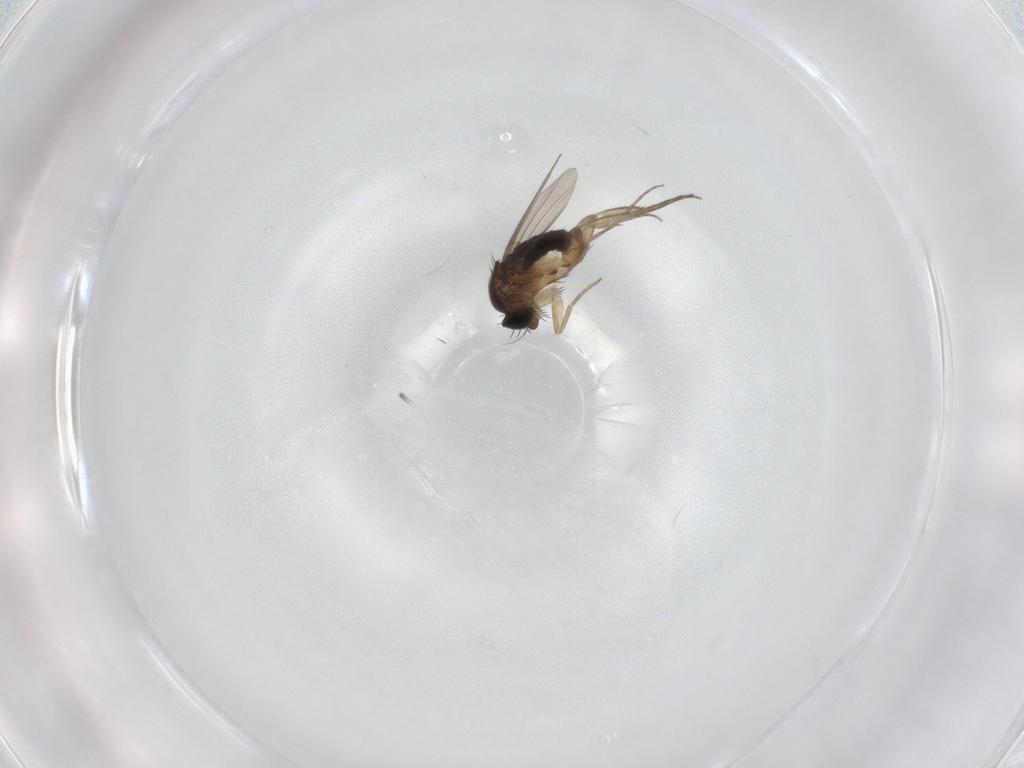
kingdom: Animalia
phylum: Arthropoda
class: Insecta
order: Diptera
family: Phoridae
